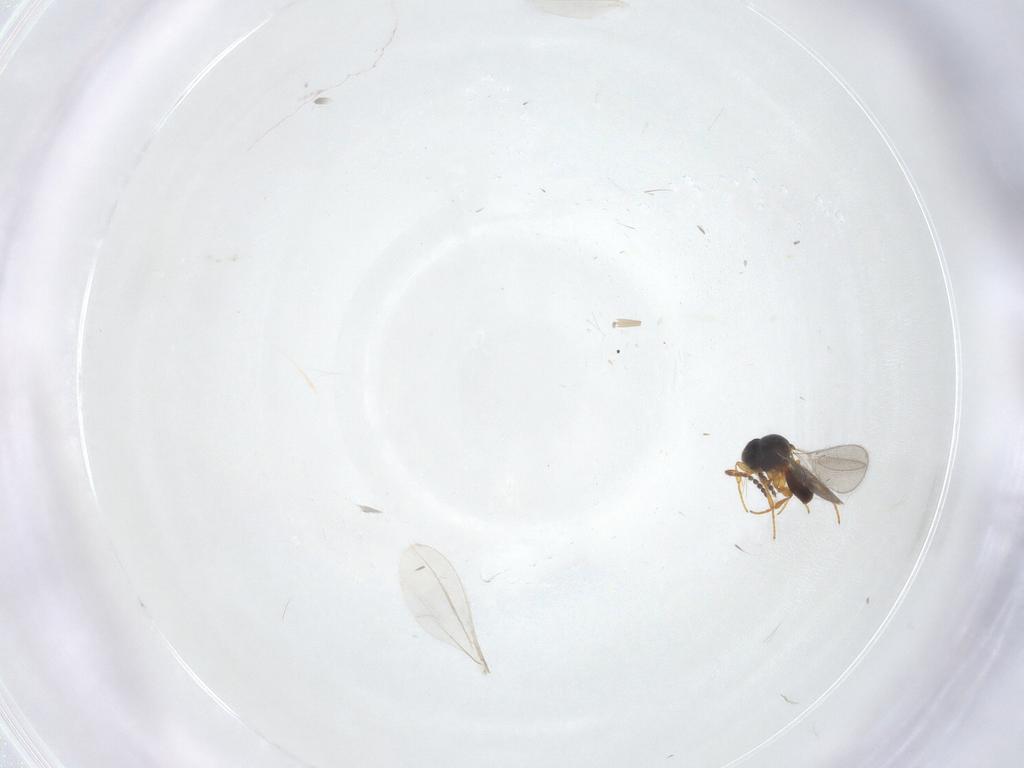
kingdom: Animalia
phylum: Arthropoda
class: Insecta
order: Hymenoptera
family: Platygastridae
